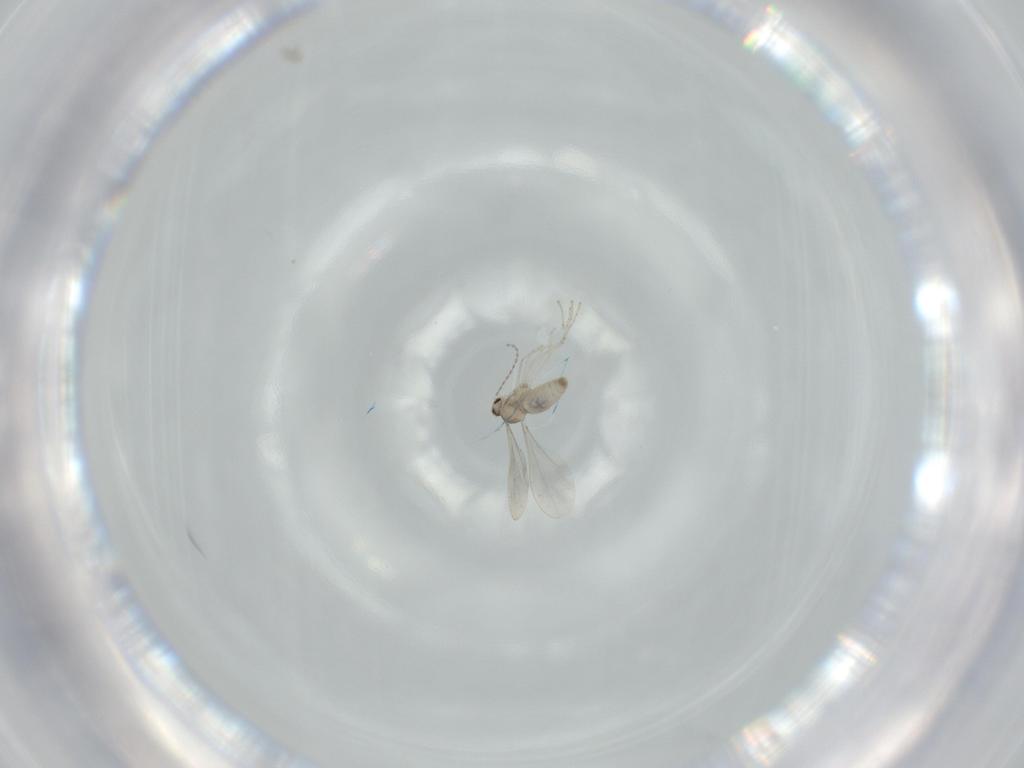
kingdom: Animalia
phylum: Arthropoda
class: Insecta
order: Diptera
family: Cecidomyiidae
